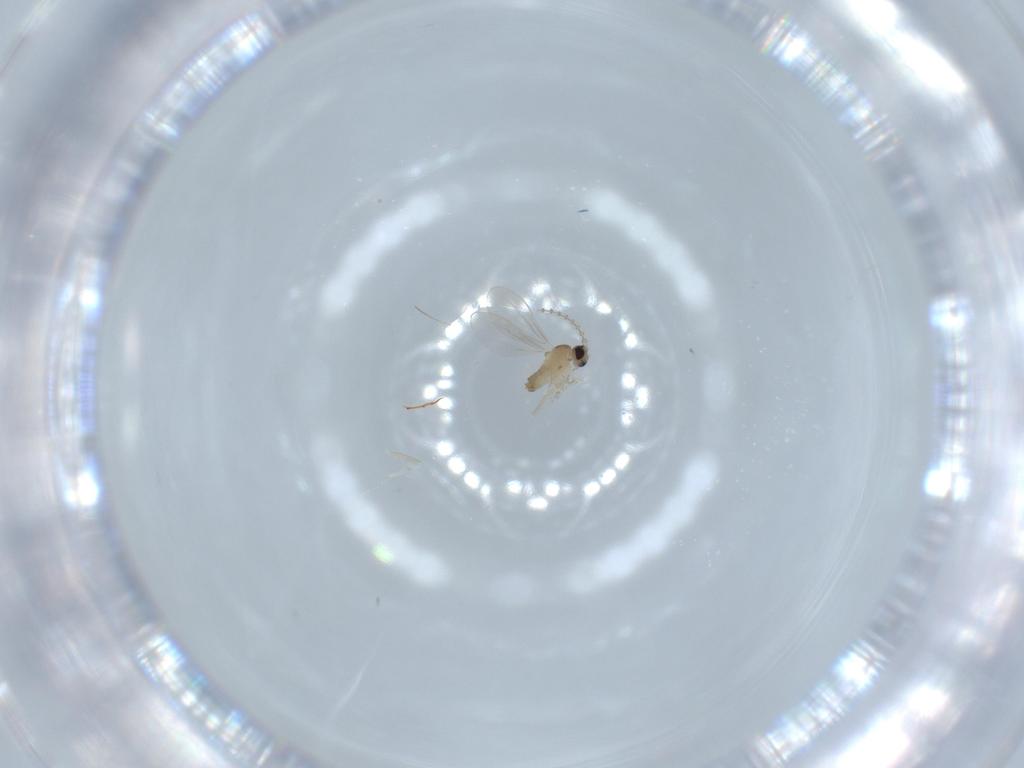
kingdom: Animalia
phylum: Arthropoda
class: Insecta
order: Diptera
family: Cecidomyiidae
